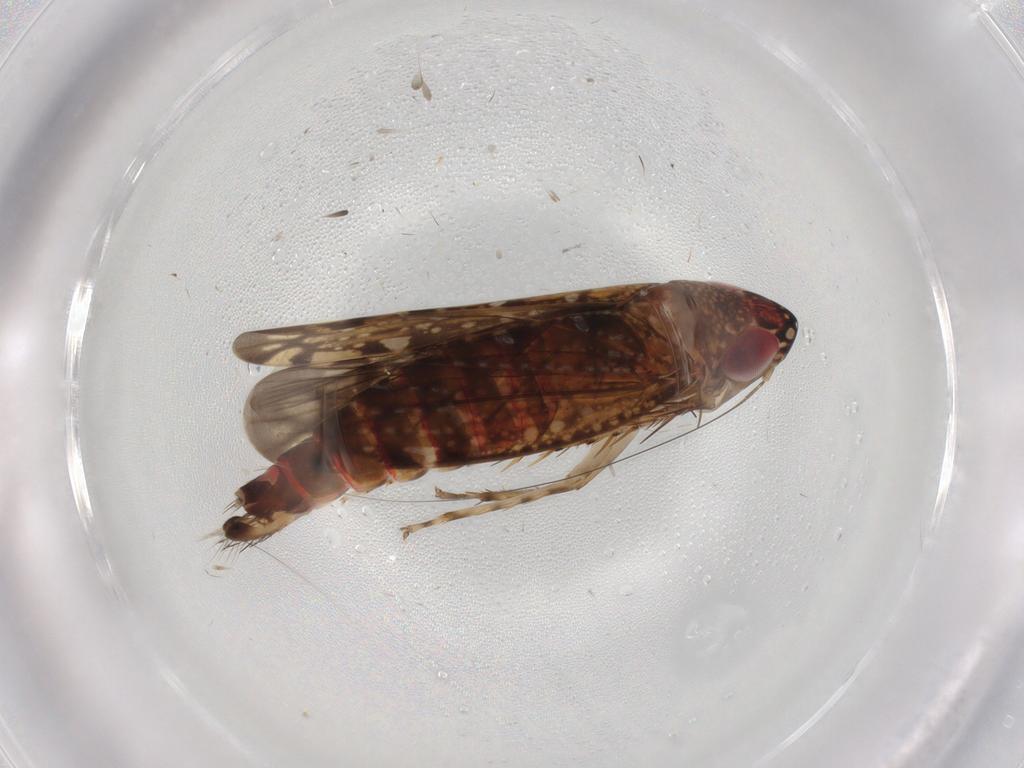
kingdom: Animalia
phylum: Arthropoda
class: Insecta
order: Hemiptera
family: Cicadellidae
